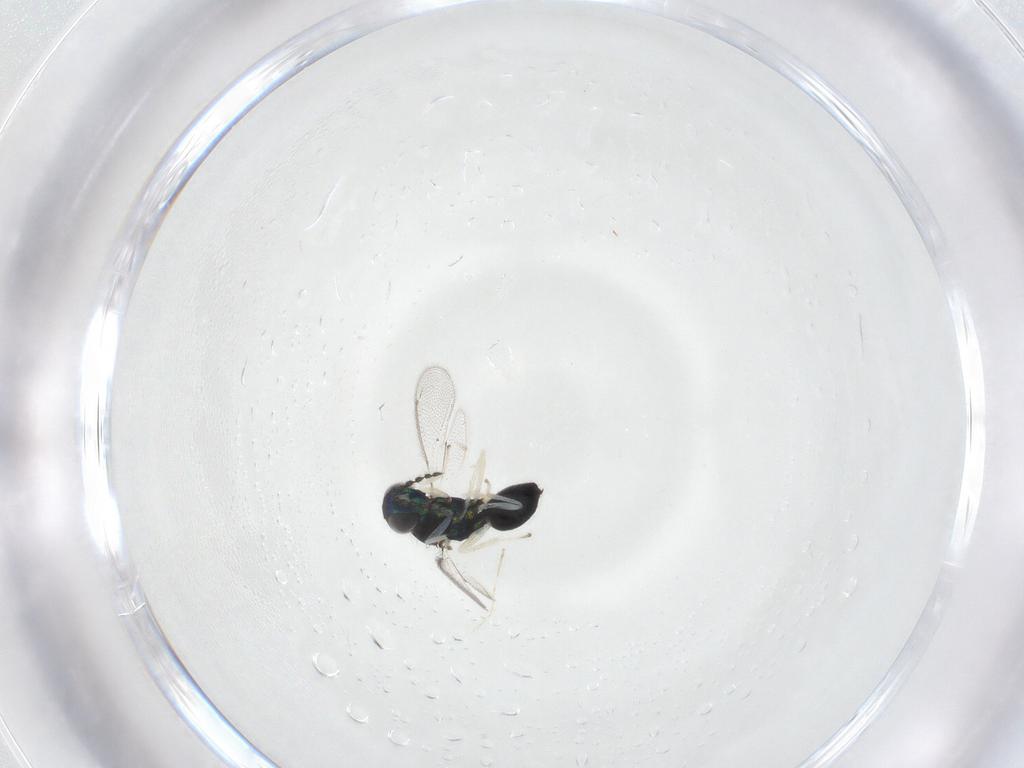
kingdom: Animalia
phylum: Arthropoda
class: Insecta
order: Hymenoptera
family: Eulophidae
